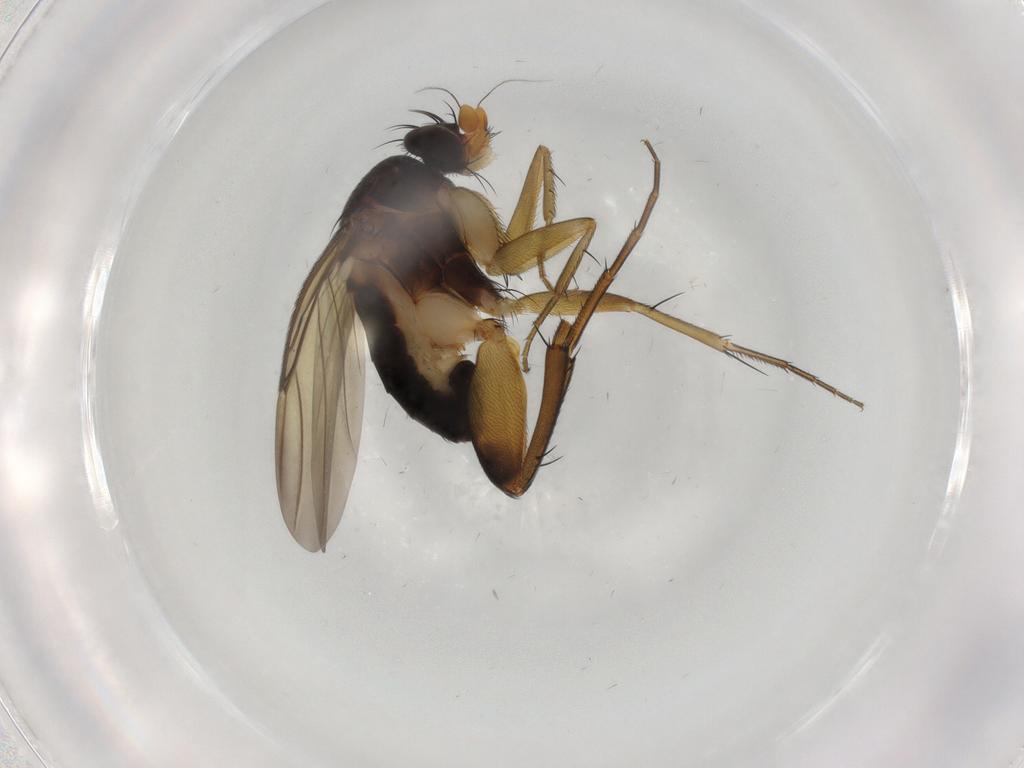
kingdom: Animalia
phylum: Arthropoda
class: Insecta
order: Diptera
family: Phoridae
